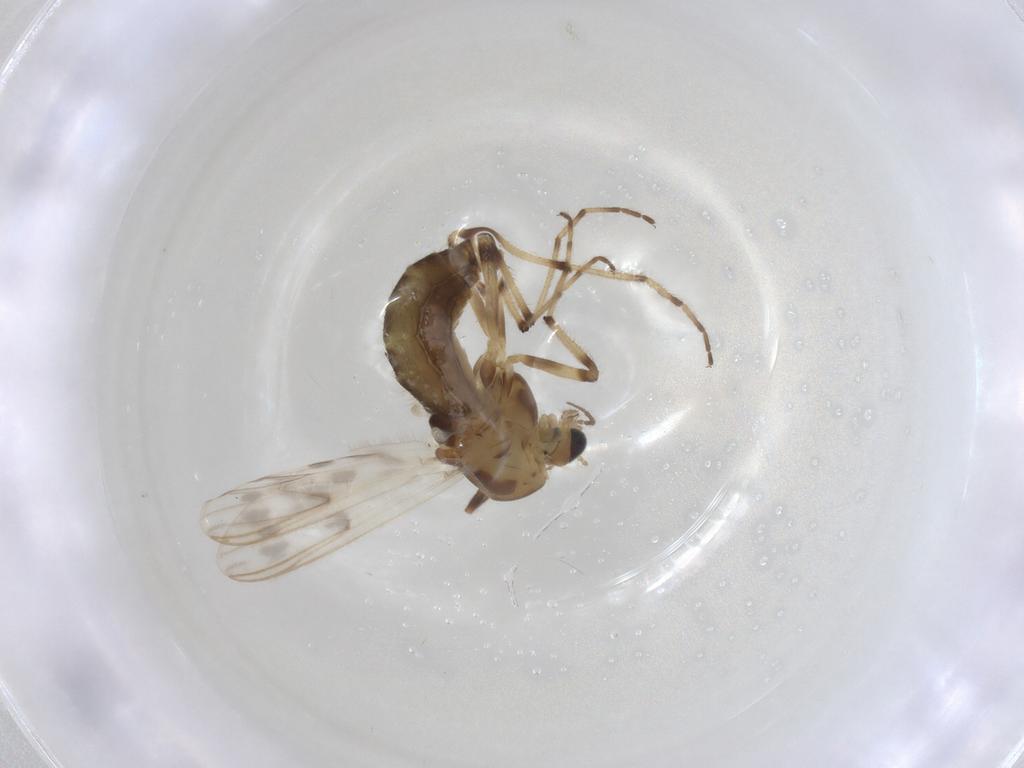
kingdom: Animalia
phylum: Arthropoda
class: Insecta
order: Diptera
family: Chironomidae
